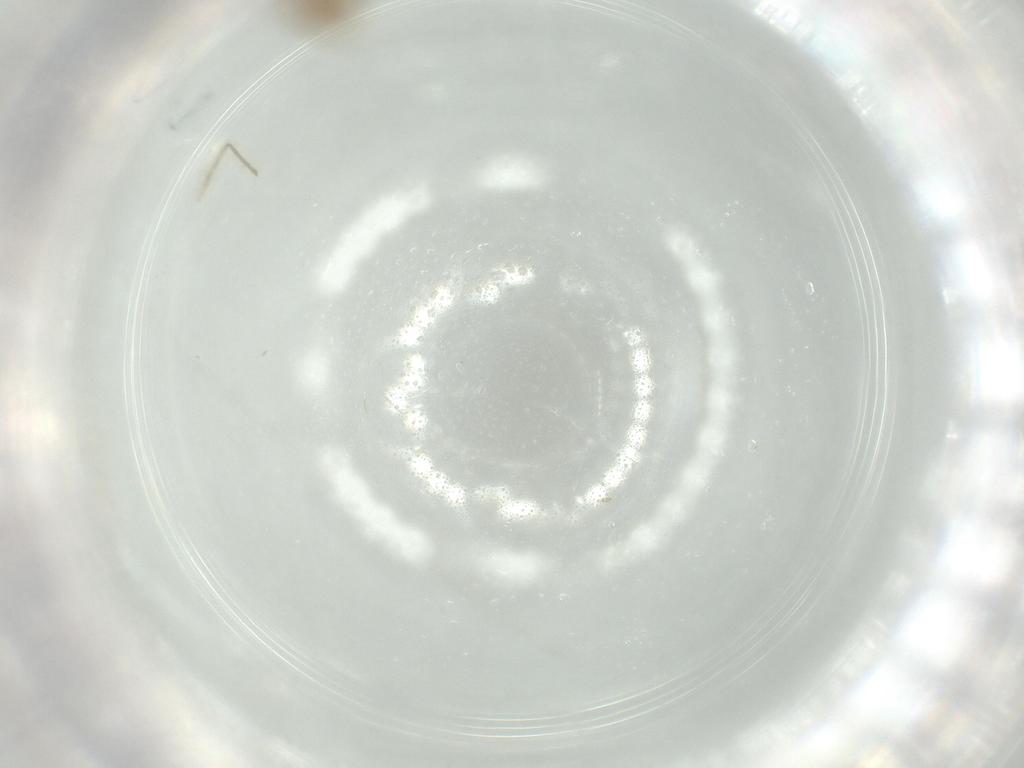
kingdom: Animalia
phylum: Arthropoda
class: Insecta
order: Diptera
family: Chironomidae
